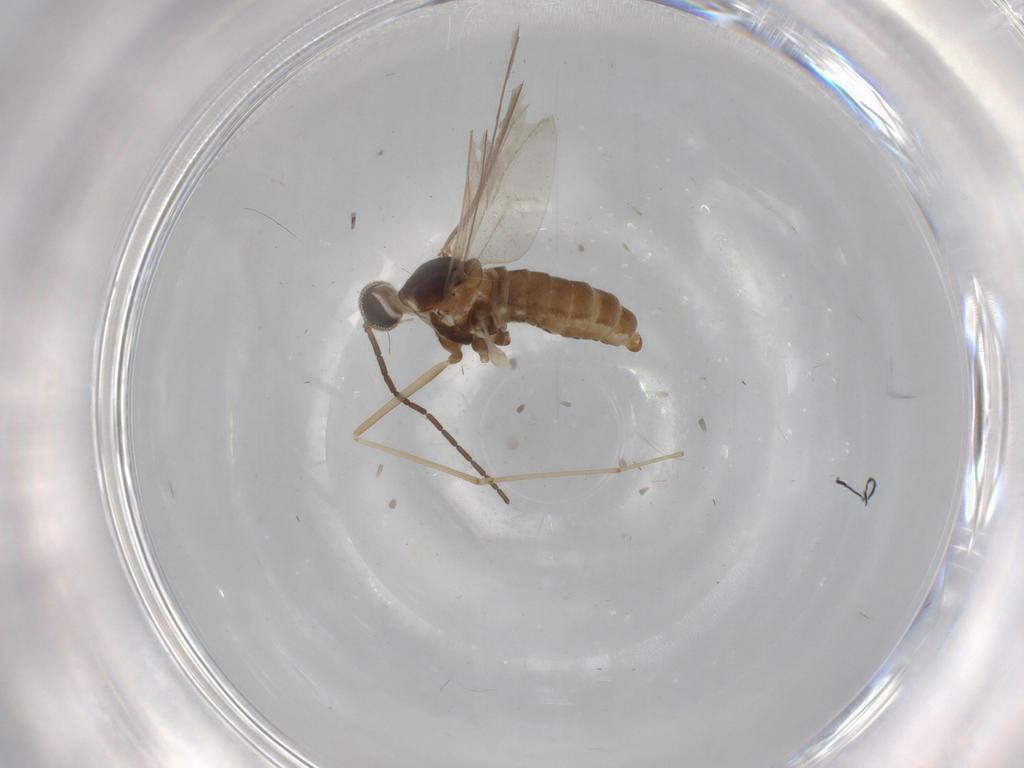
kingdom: Animalia
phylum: Arthropoda
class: Insecta
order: Diptera
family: Cecidomyiidae
